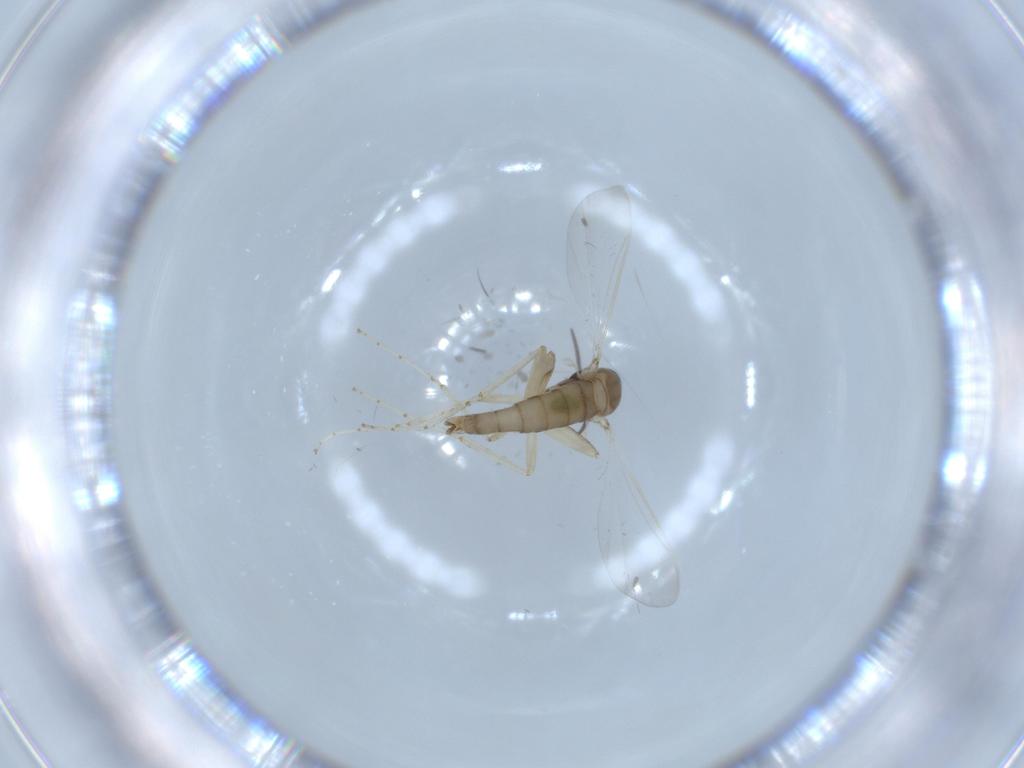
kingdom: Animalia
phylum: Arthropoda
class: Insecta
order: Diptera
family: Cecidomyiidae
